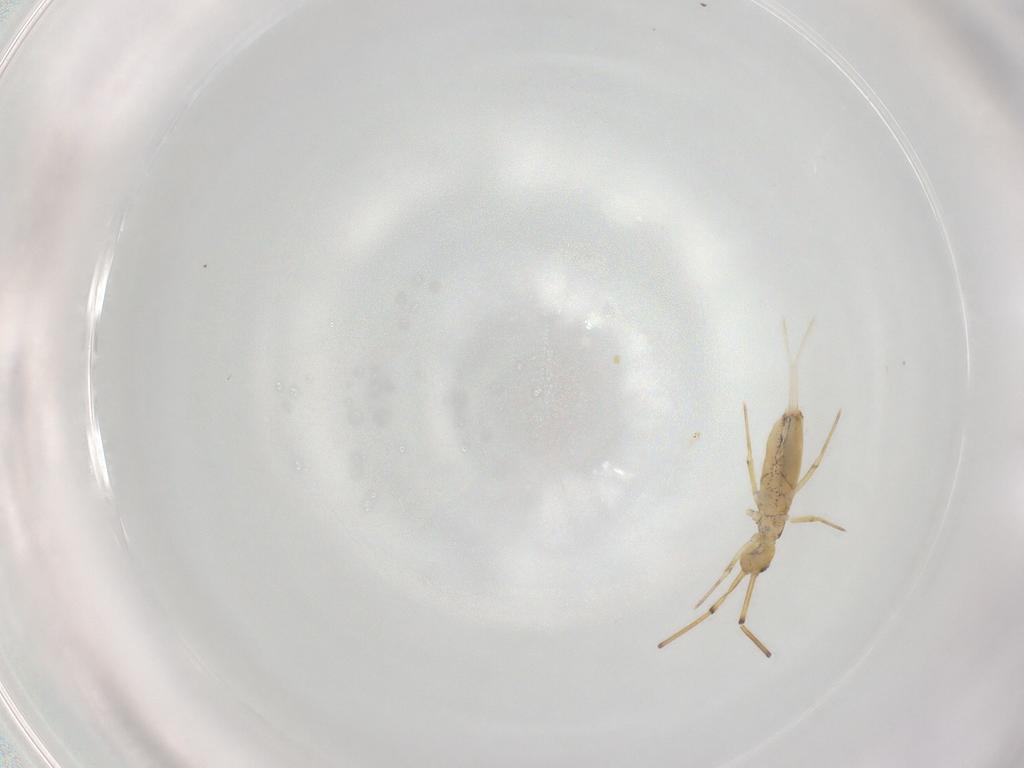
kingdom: Animalia
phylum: Arthropoda
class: Collembola
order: Entomobryomorpha
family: Paronellidae
